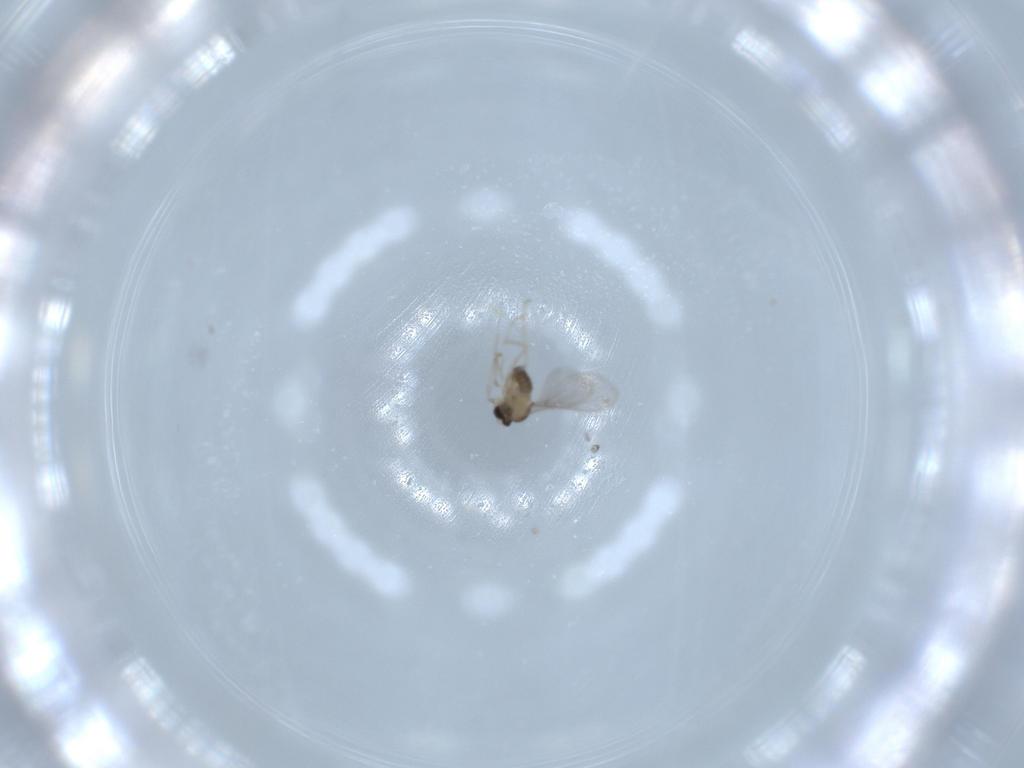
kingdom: Animalia
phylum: Arthropoda
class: Insecta
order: Diptera
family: Cecidomyiidae
